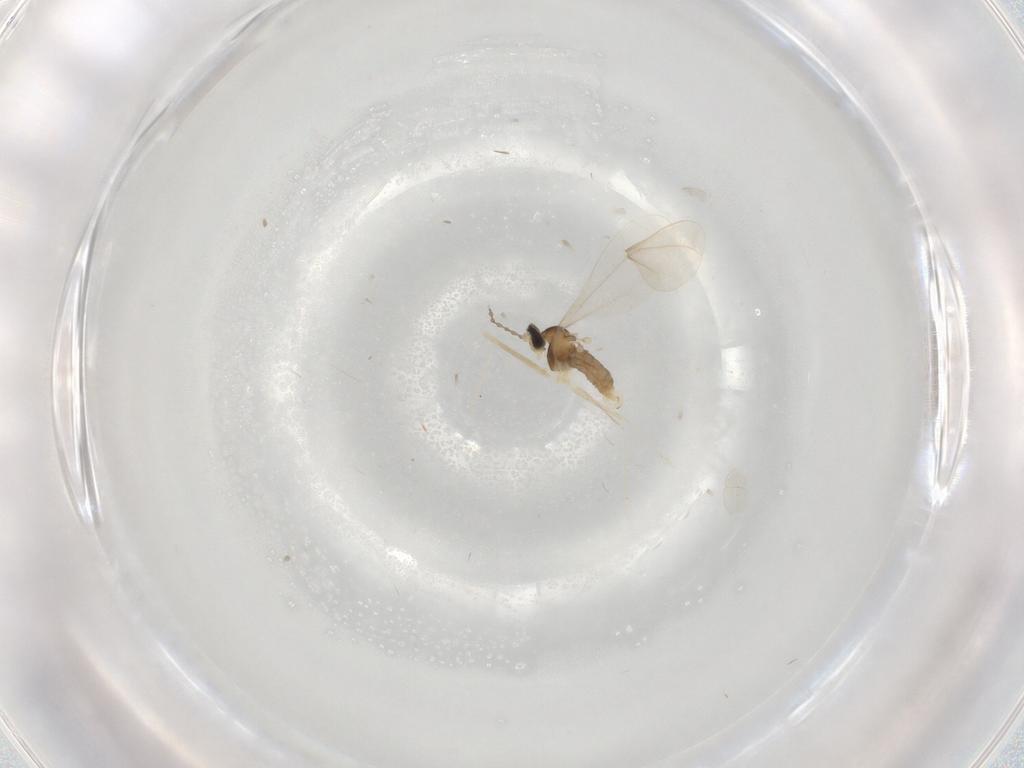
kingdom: Animalia
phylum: Arthropoda
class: Insecta
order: Diptera
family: Cecidomyiidae
